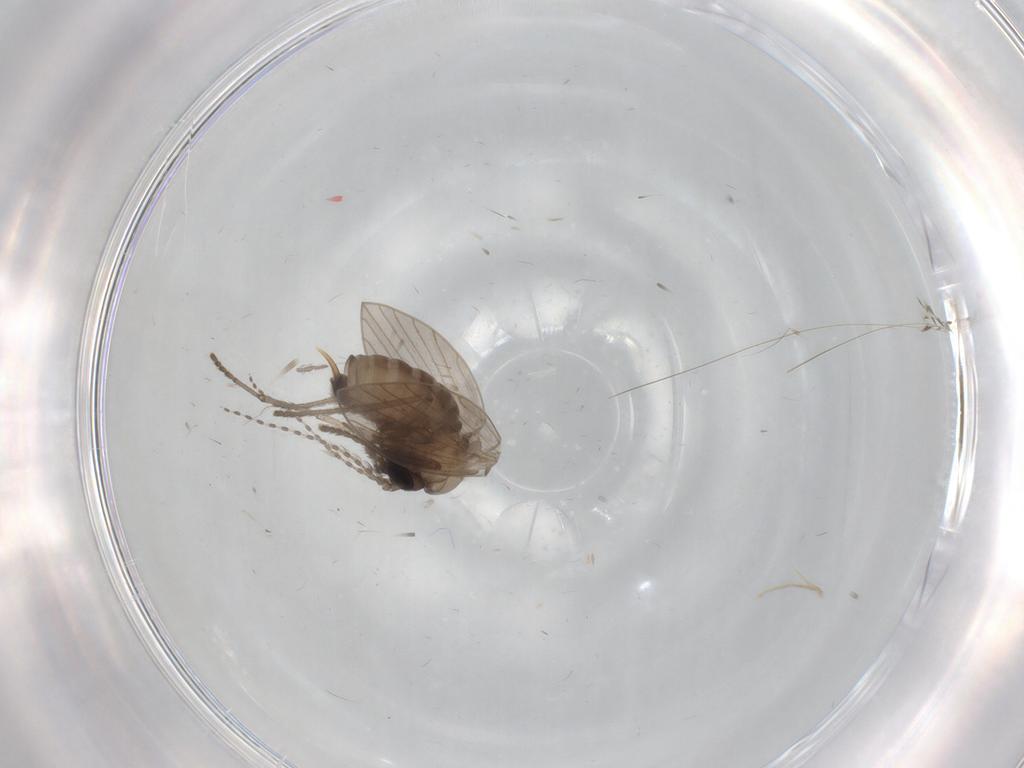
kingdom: Animalia
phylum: Arthropoda
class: Insecta
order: Diptera
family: Psychodidae
